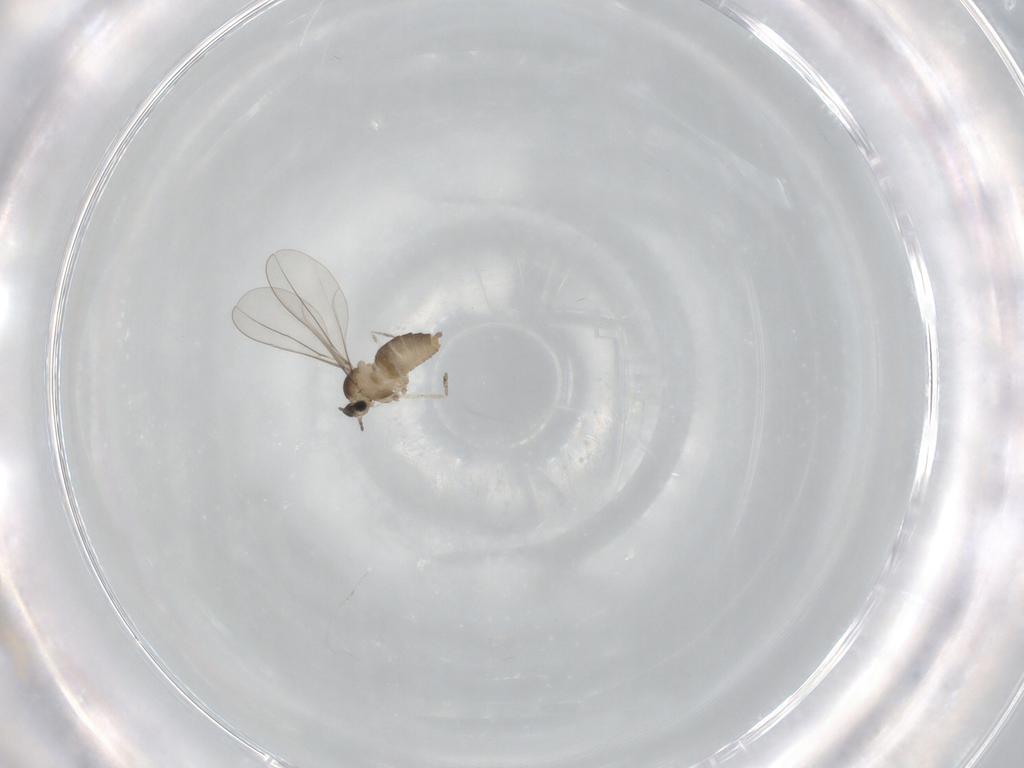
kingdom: Animalia
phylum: Arthropoda
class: Insecta
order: Diptera
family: Cecidomyiidae
